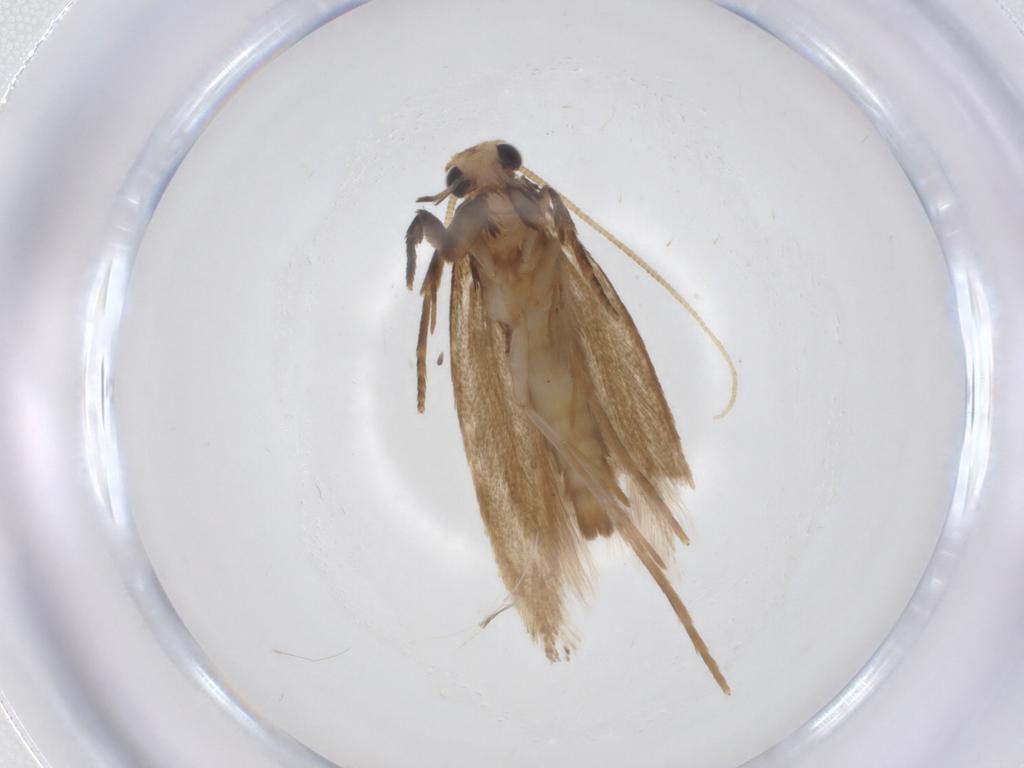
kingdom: Animalia
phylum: Arthropoda
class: Insecta
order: Lepidoptera
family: Tineidae
